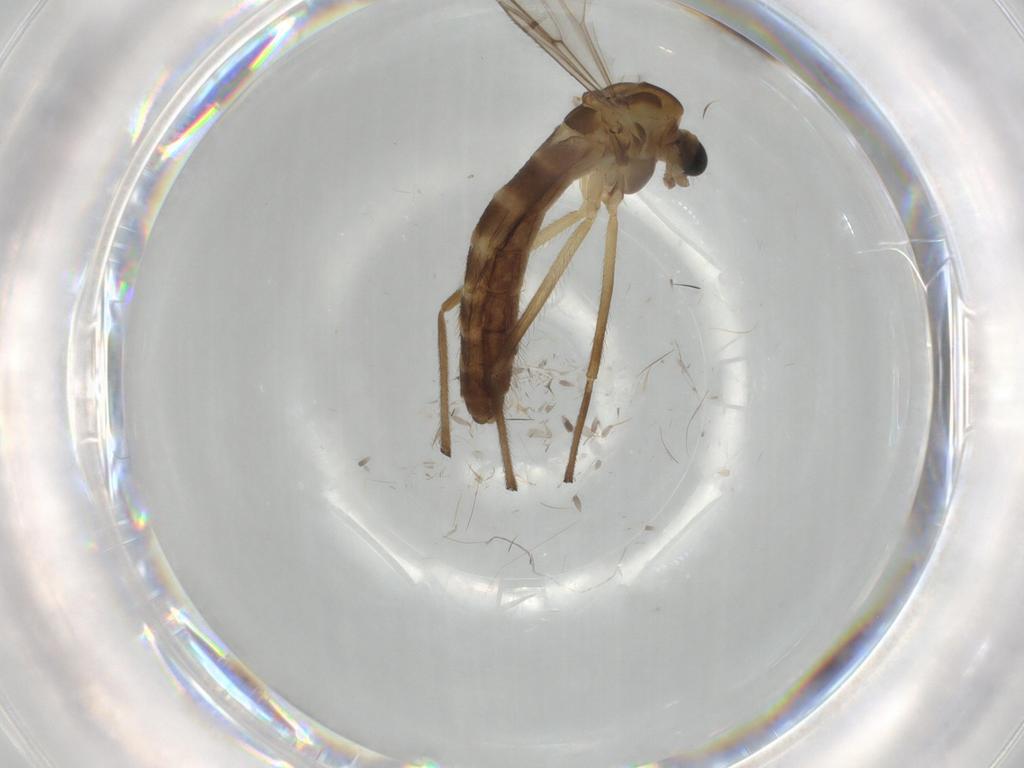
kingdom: Animalia
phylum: Arthropoda
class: Insecta
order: Diptera
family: Chironomidae
